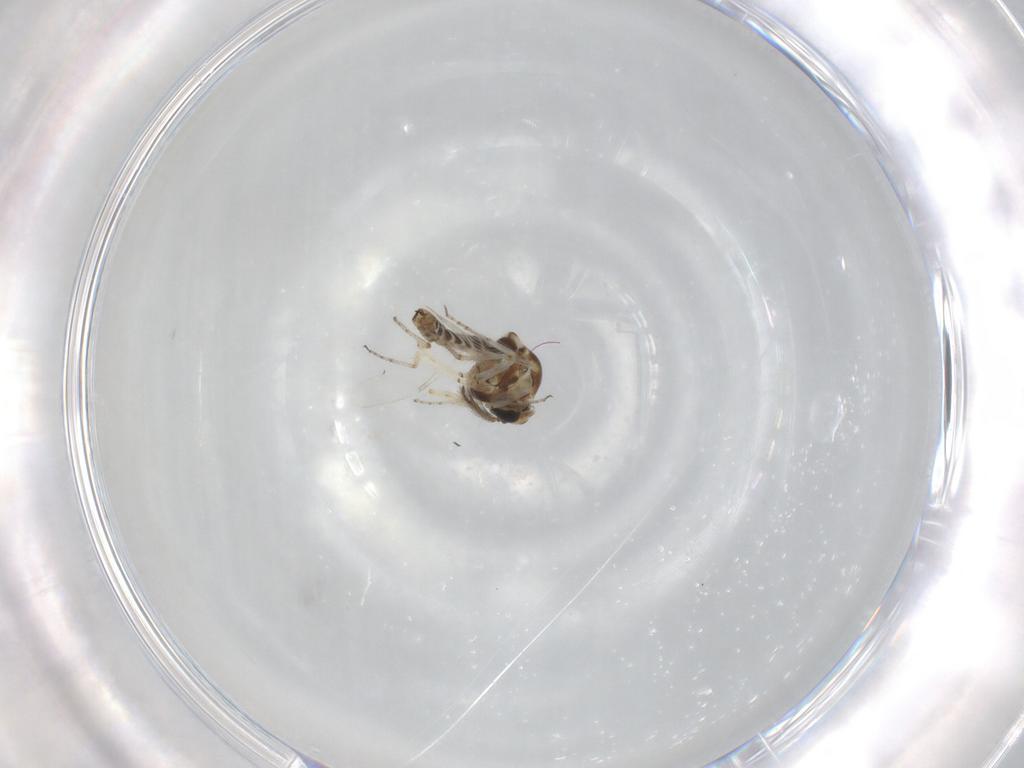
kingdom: Animalia
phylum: Arthropoda
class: Insecta
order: Diptera
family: Ceratopogonidae
